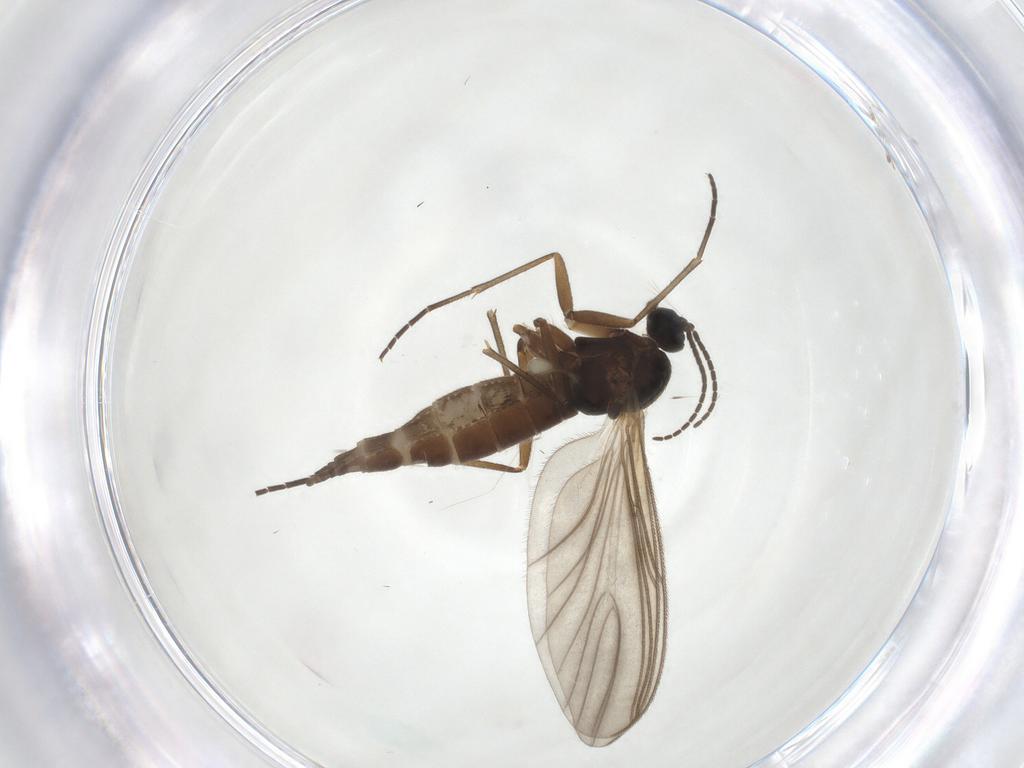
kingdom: Animalia
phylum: Arthropoda
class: Insecta
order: Diptera
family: Sciaridae
